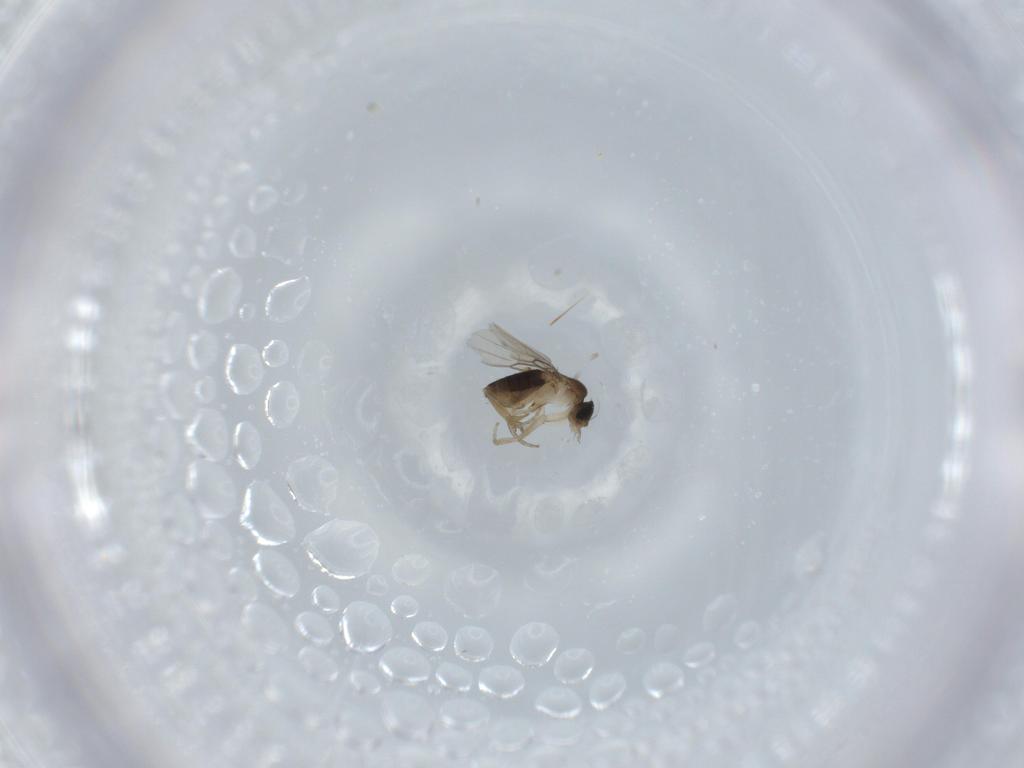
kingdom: Animalia
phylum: Arthropoda
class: Insecta
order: Diptera
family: Phoridae
